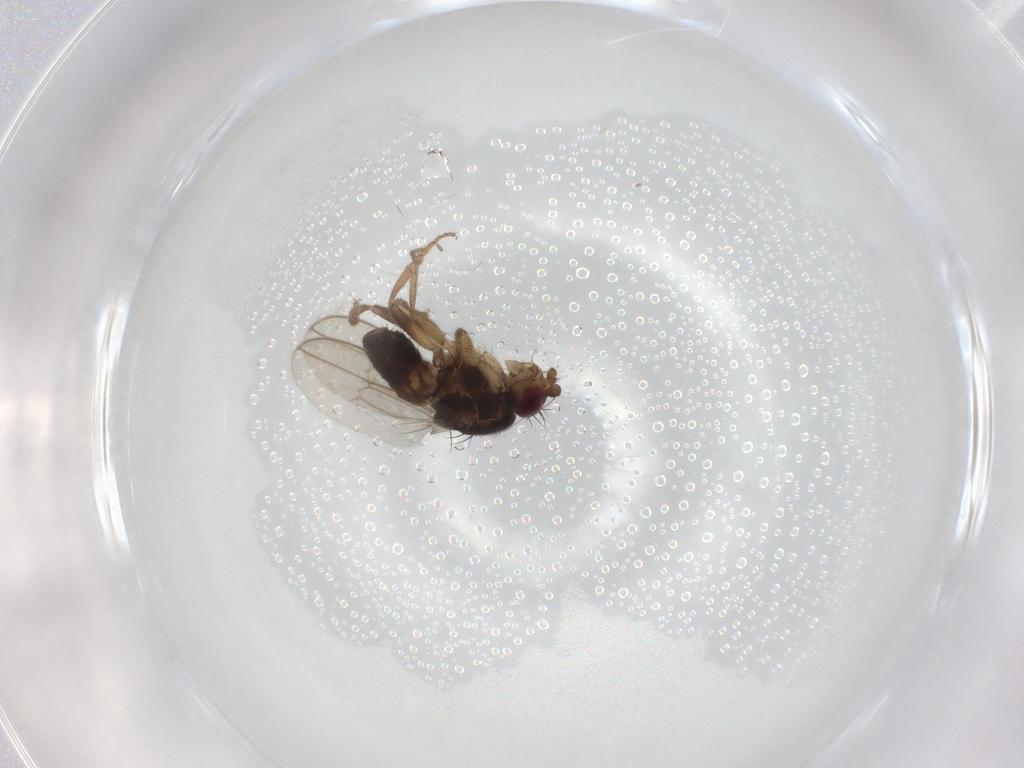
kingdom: Animalia
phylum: Arthropoda
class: Insecta
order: Diptera
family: Sphaeroceridae
